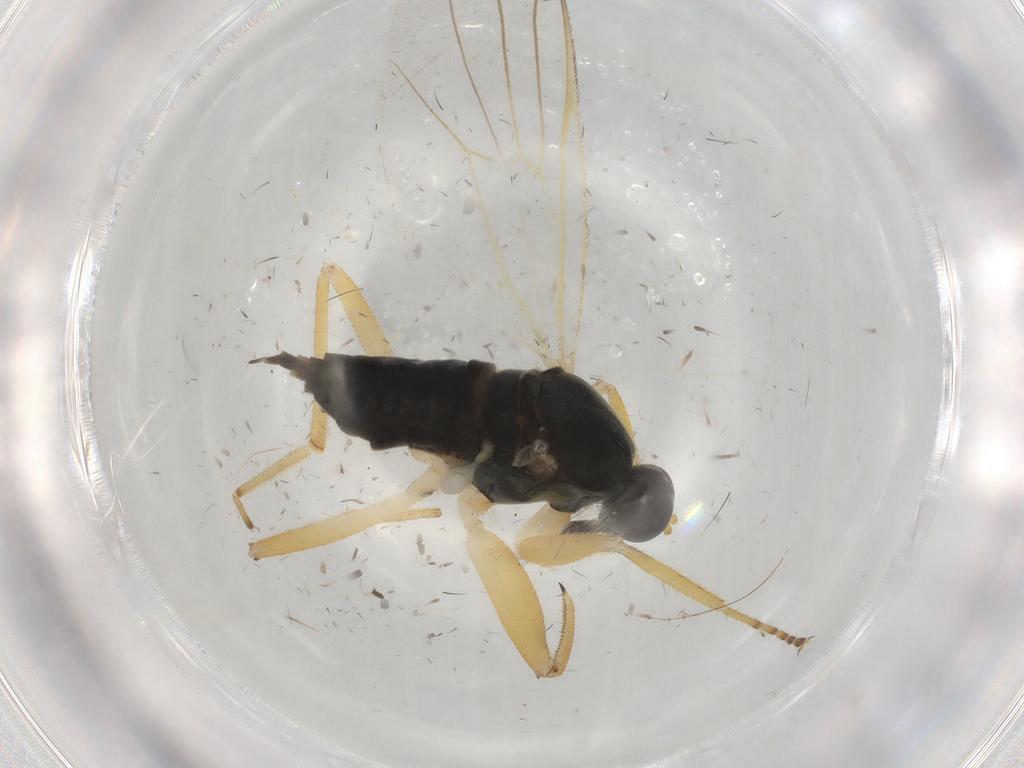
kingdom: Animalia
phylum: Arthropoda
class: Insecta
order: Diptera
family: Hybotidae
